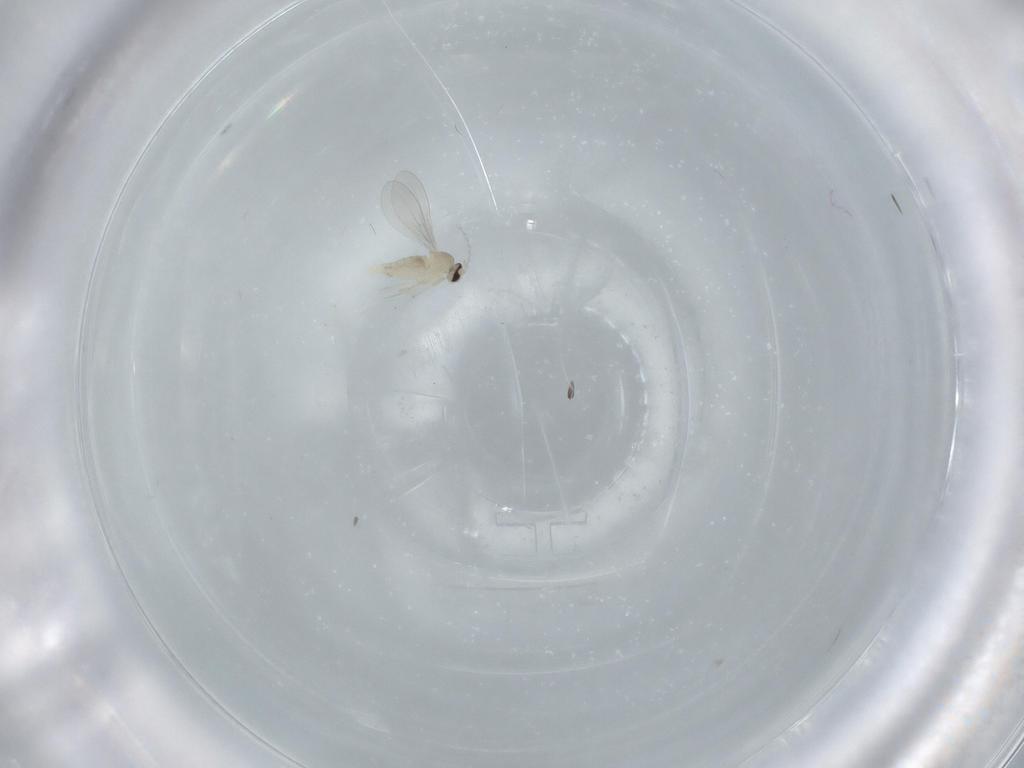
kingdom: Animalia
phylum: Arthropoda
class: Insecta
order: Diptera
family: Cecidomyiidae
